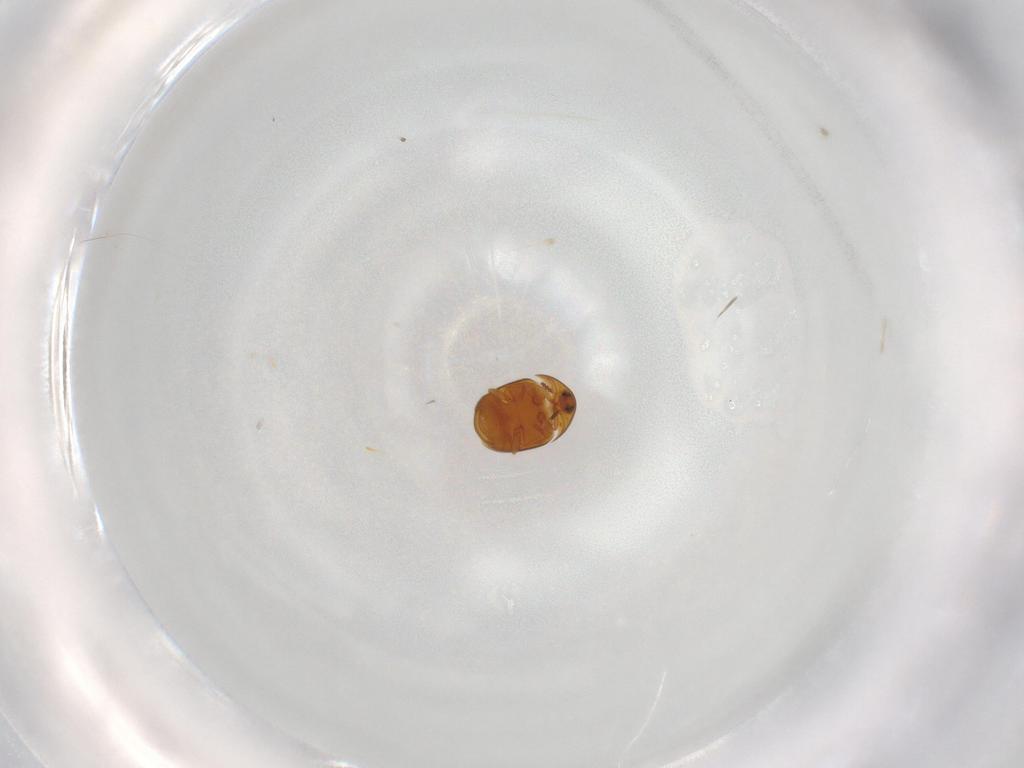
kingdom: Animalia
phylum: Arthropoda
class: Insecta
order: Coleoptera
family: Corylophidae
